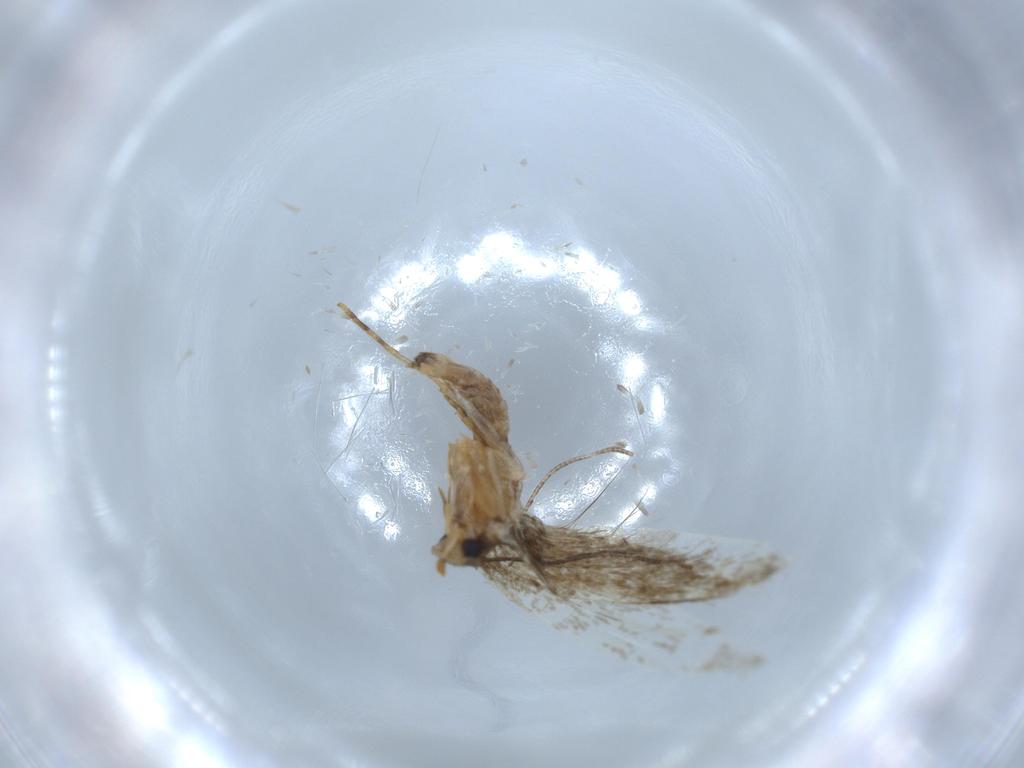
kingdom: Animalia
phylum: Arthropoda
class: Insecta
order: Lepidoptera
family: Tineidae
